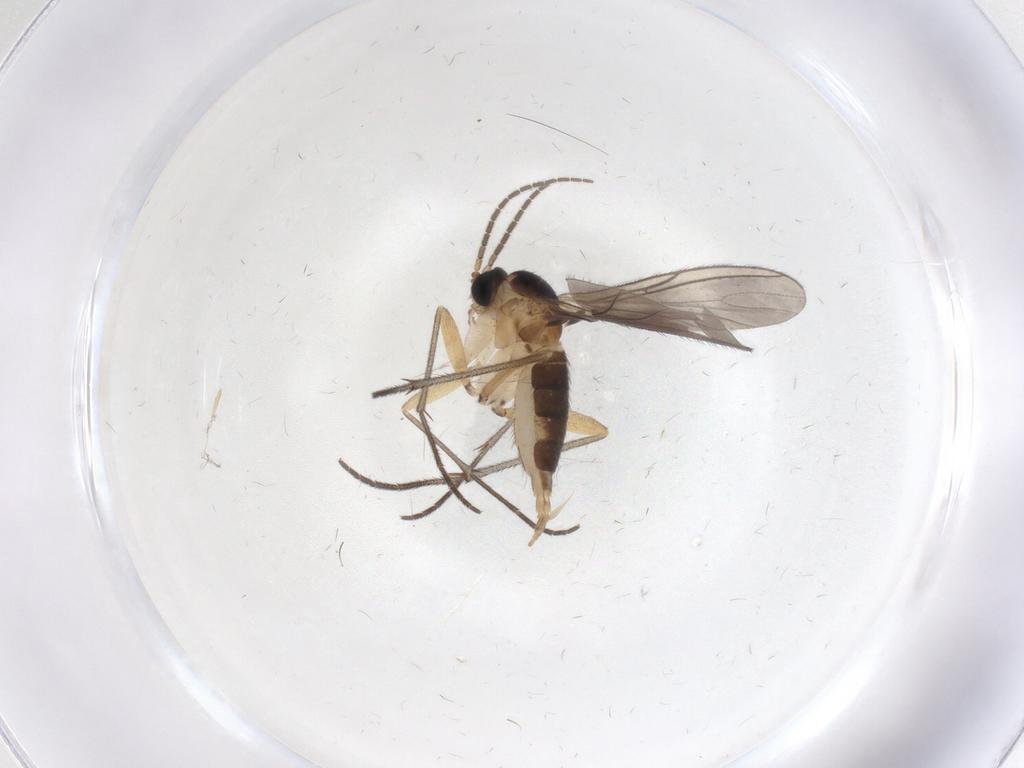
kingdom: Animalia
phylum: Arthropoda
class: Insecta
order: Diptera
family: Sciaridae
